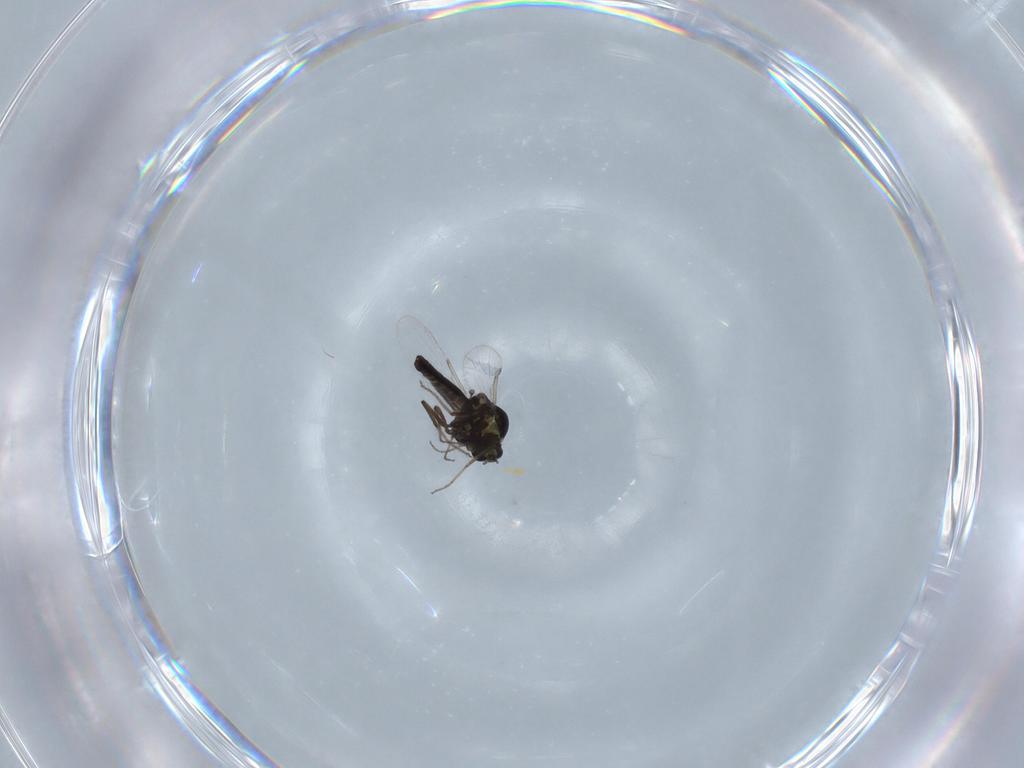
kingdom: Animalia
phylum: Arthropoda
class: Insecta
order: Diptera
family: Ceratopogonidae
